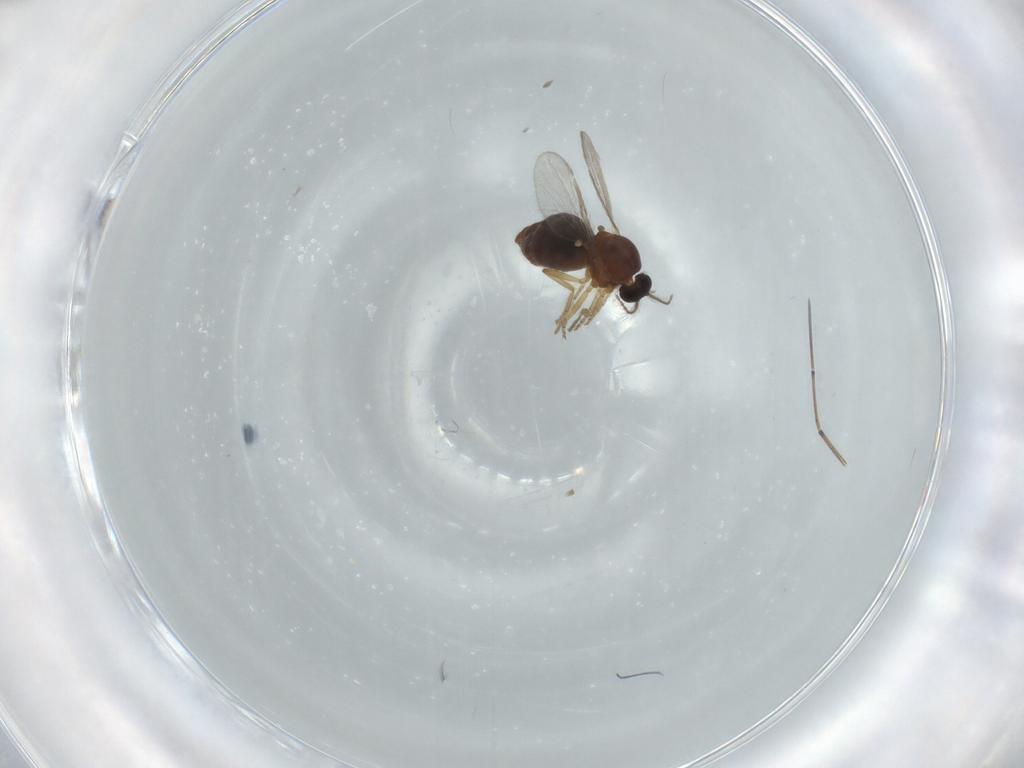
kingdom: Animalia
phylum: Arthropoda
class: Insecta
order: Diptera
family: Ceratopogonidae
